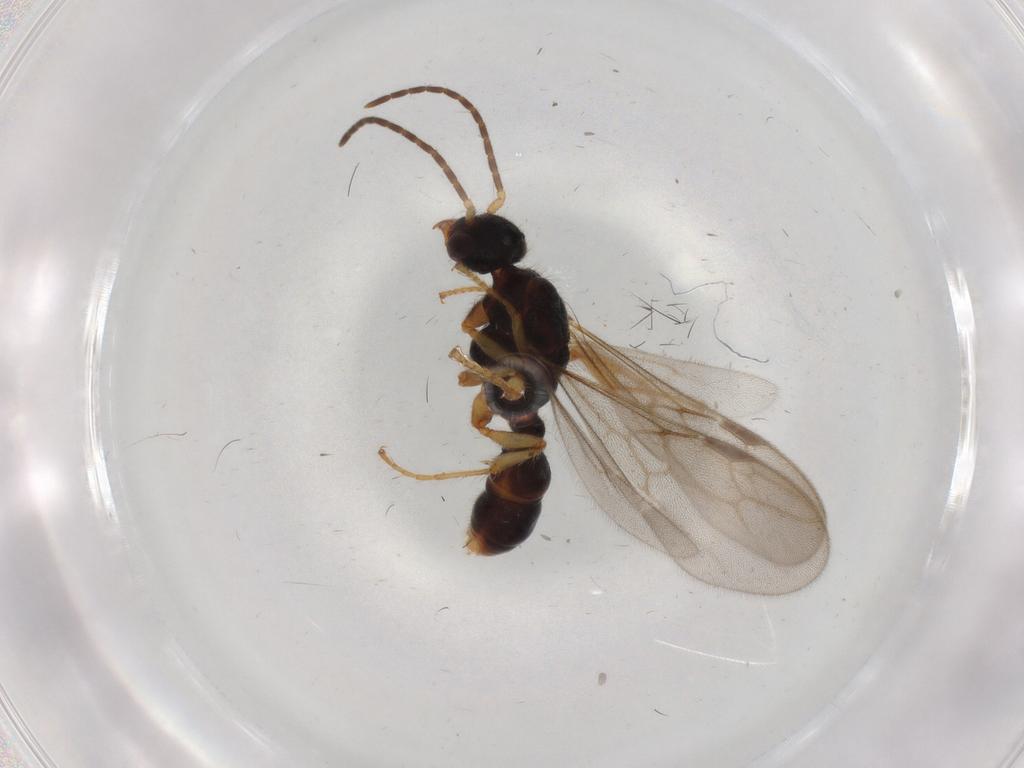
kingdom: Animalia
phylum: Arthropoda
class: Insecta
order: Hymenoptera
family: Formicidae
